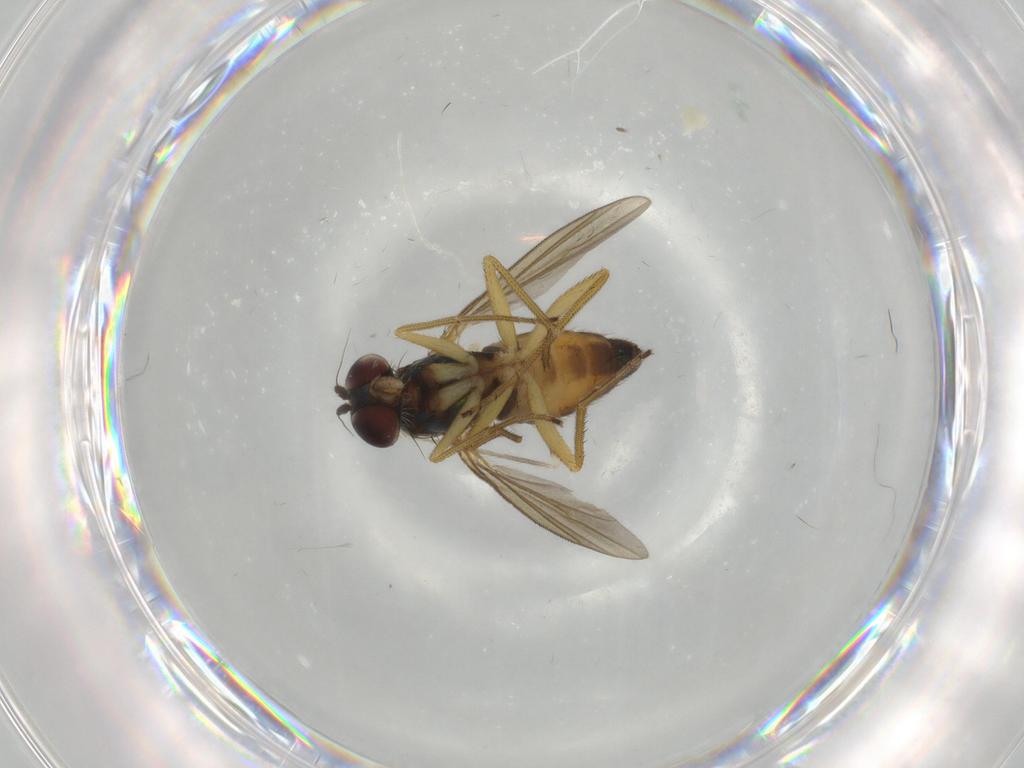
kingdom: Animalia
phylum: Arthropoda
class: Insecta
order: Diptera
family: Dolichopodidae
